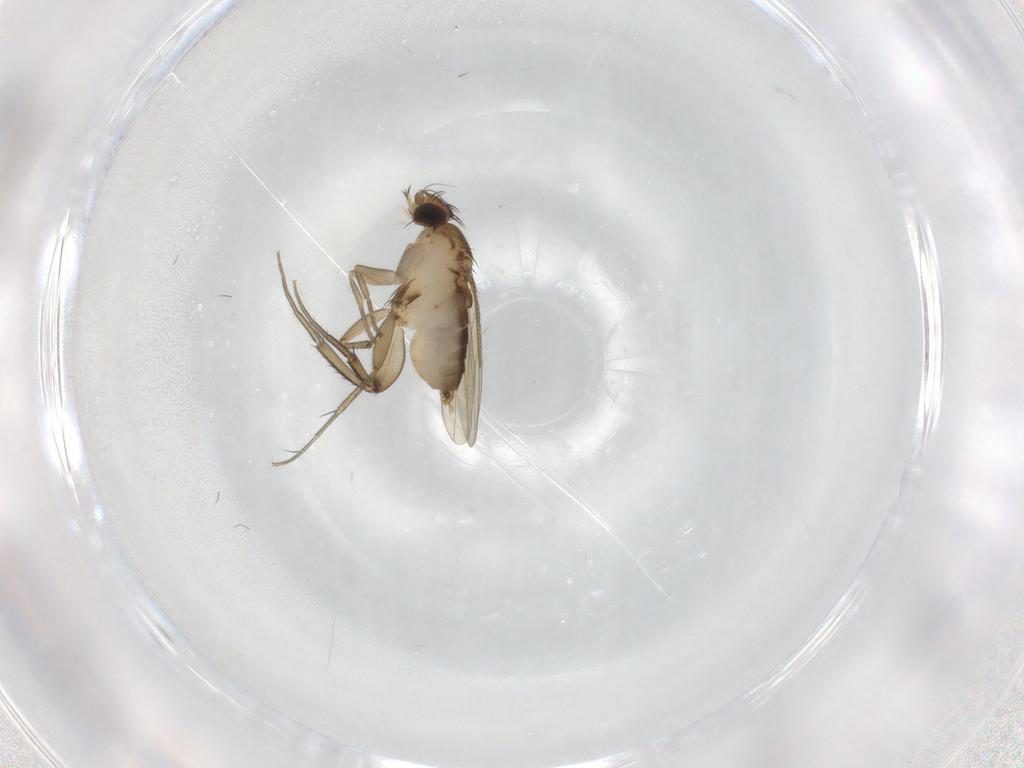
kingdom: Animalia
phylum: Arthropoda
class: Insecta
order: Diptera
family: Phoridae
